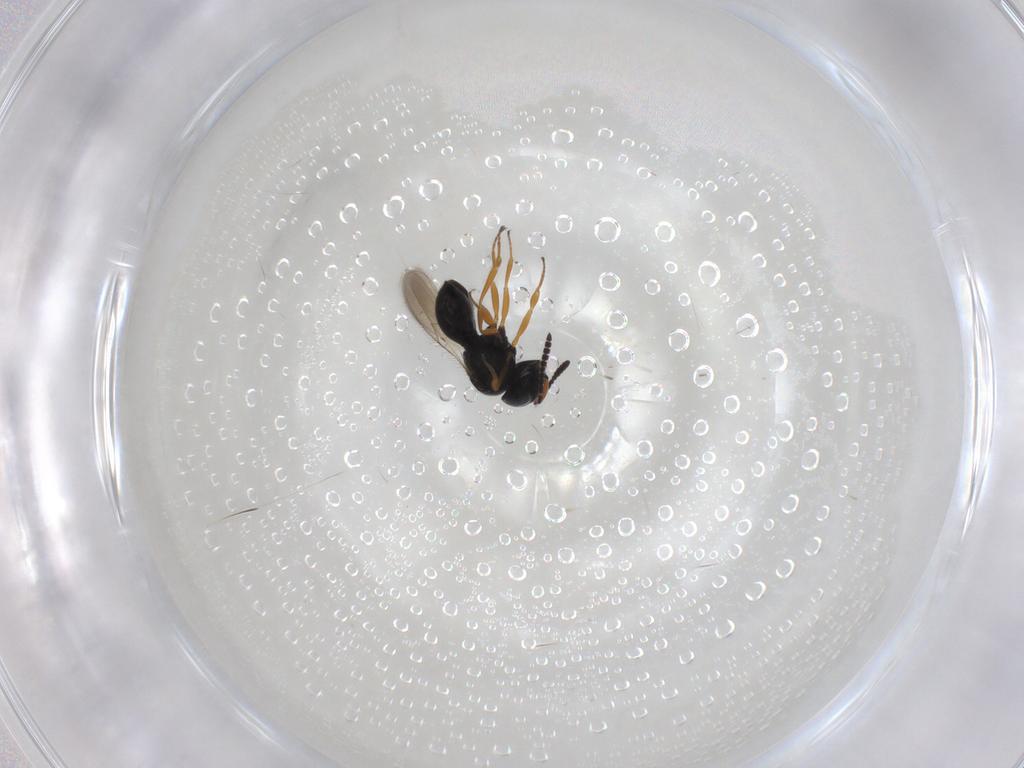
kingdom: Animalia
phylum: Arthropoda
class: Insecta
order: Hymenoptera
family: Scelionidae
